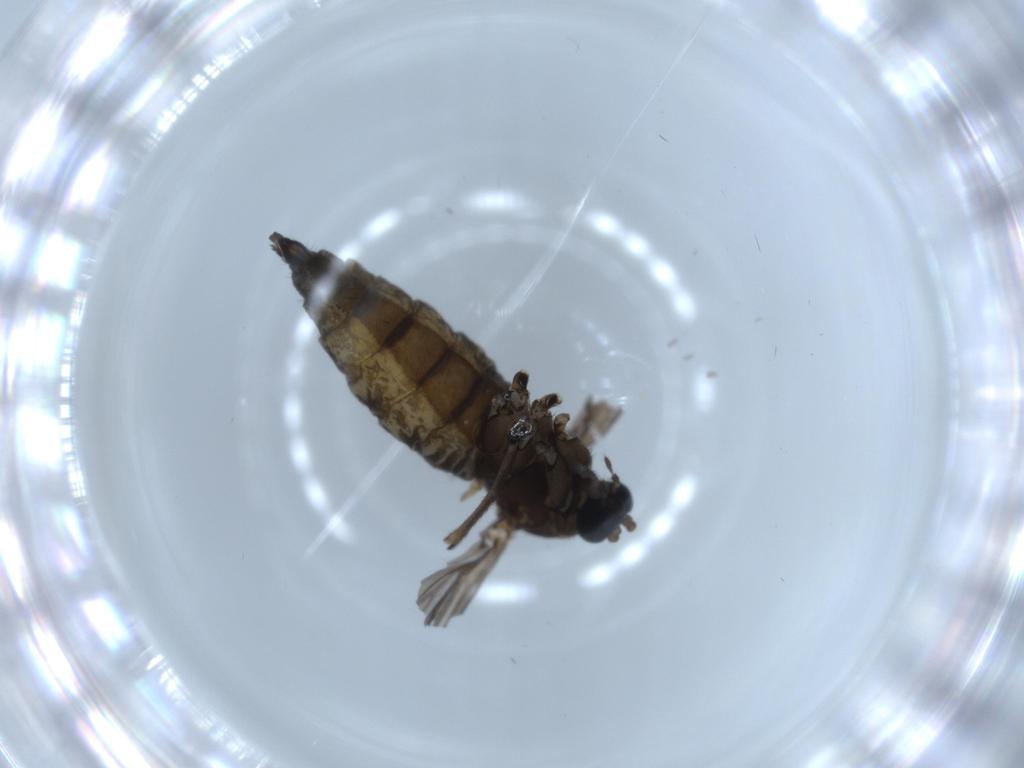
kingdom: Animalia
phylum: Arthropoda
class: Insecta
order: Diptera
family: Sciaridae
